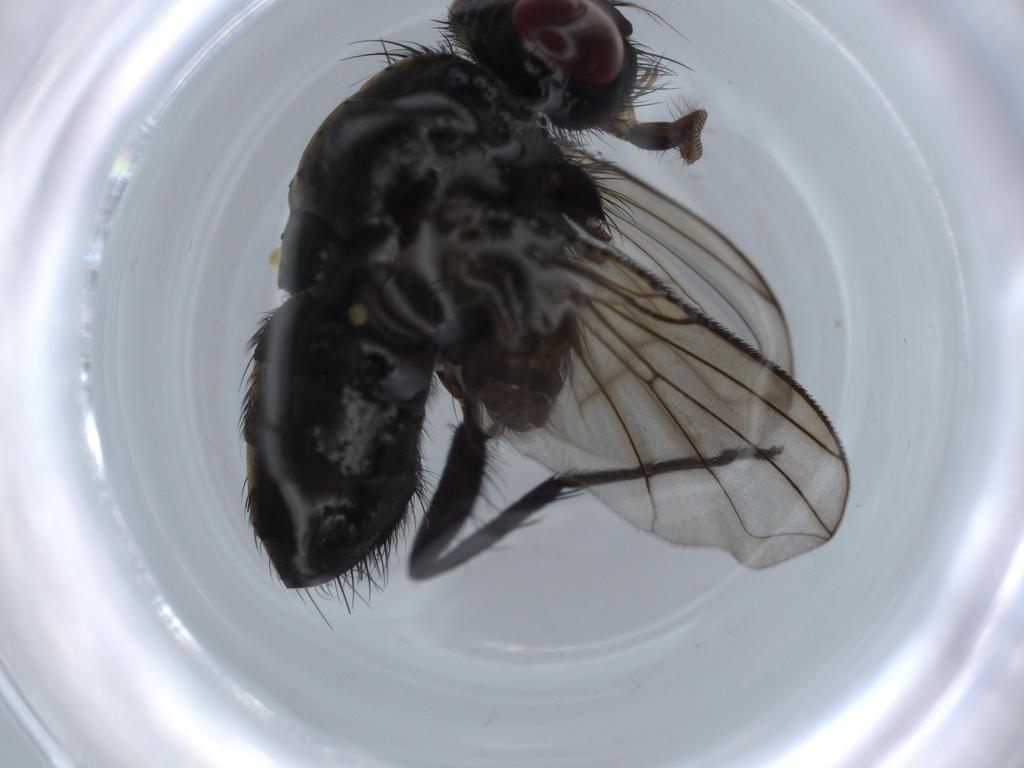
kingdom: Animalia
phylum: Arthropoda
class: Insecta
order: Diptera
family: Calliphoridae
